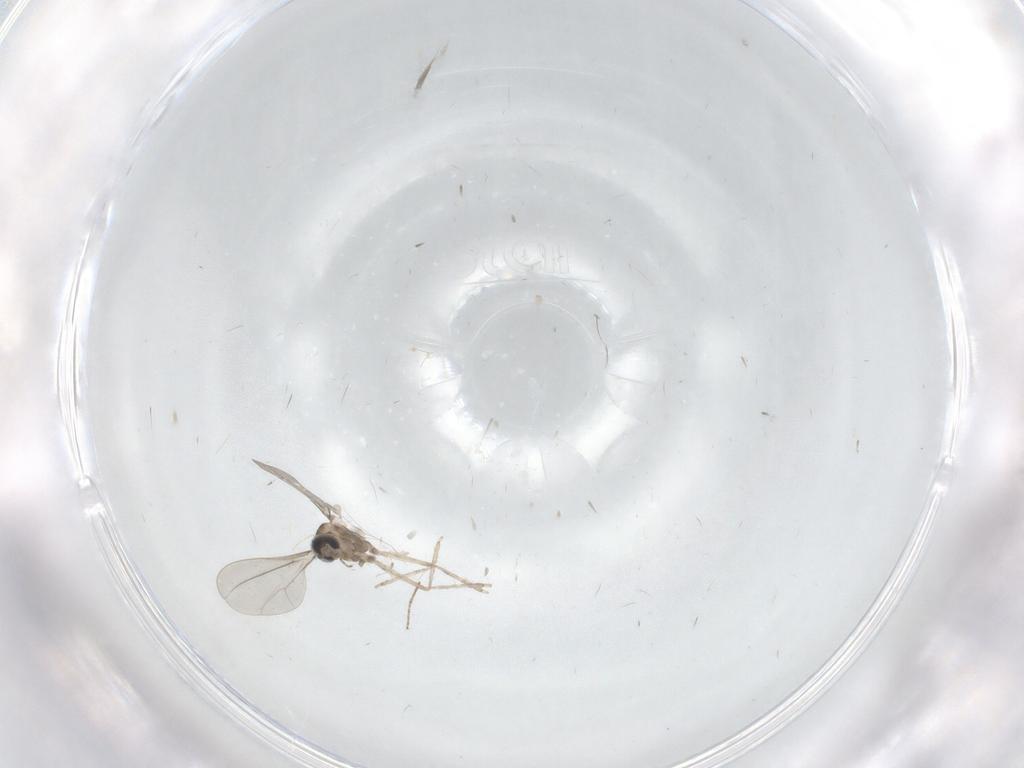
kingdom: Animalia
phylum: Arthropoda
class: Insecta
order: Diptera
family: Ceratopogonidae
